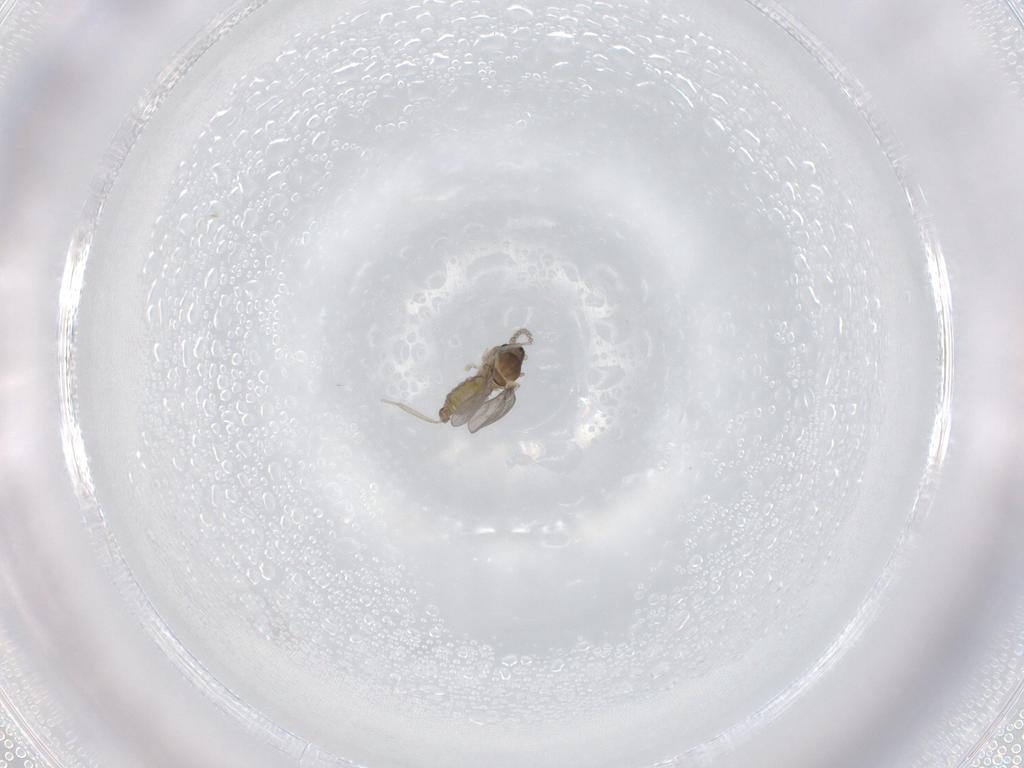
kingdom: Animalia
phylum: Arthropoda
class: Insecta
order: Diptera
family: Cecidomyiidae
